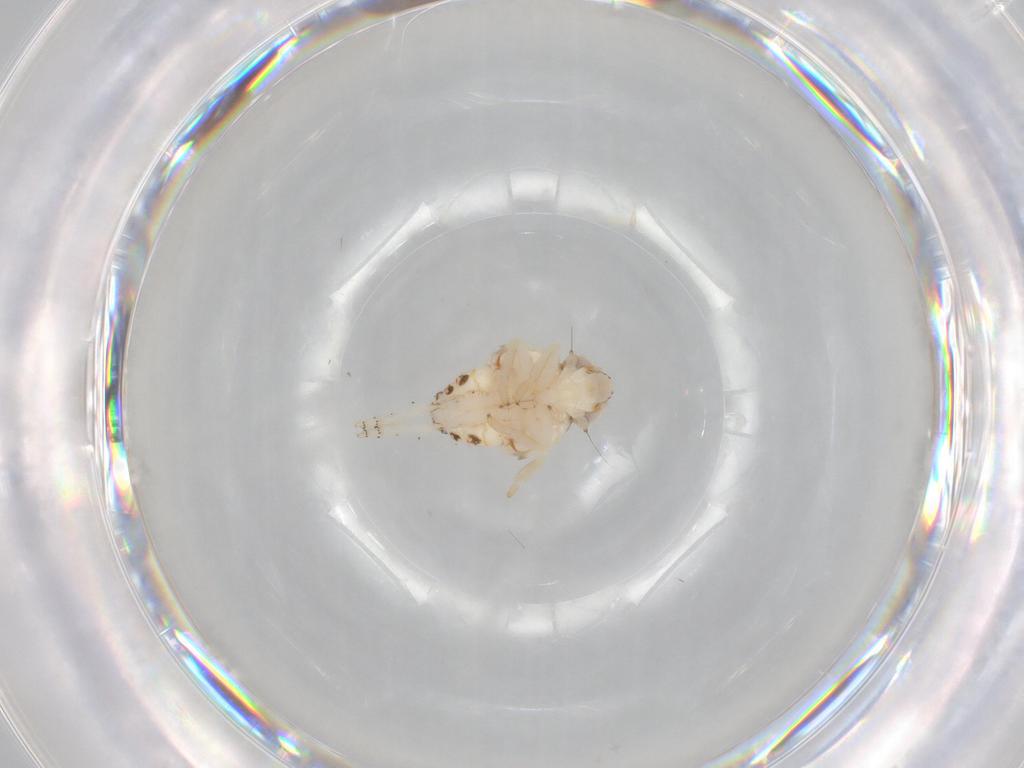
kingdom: Animalia
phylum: Arthropoda
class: Insecta
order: Hemiptera
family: Nogodinidae
